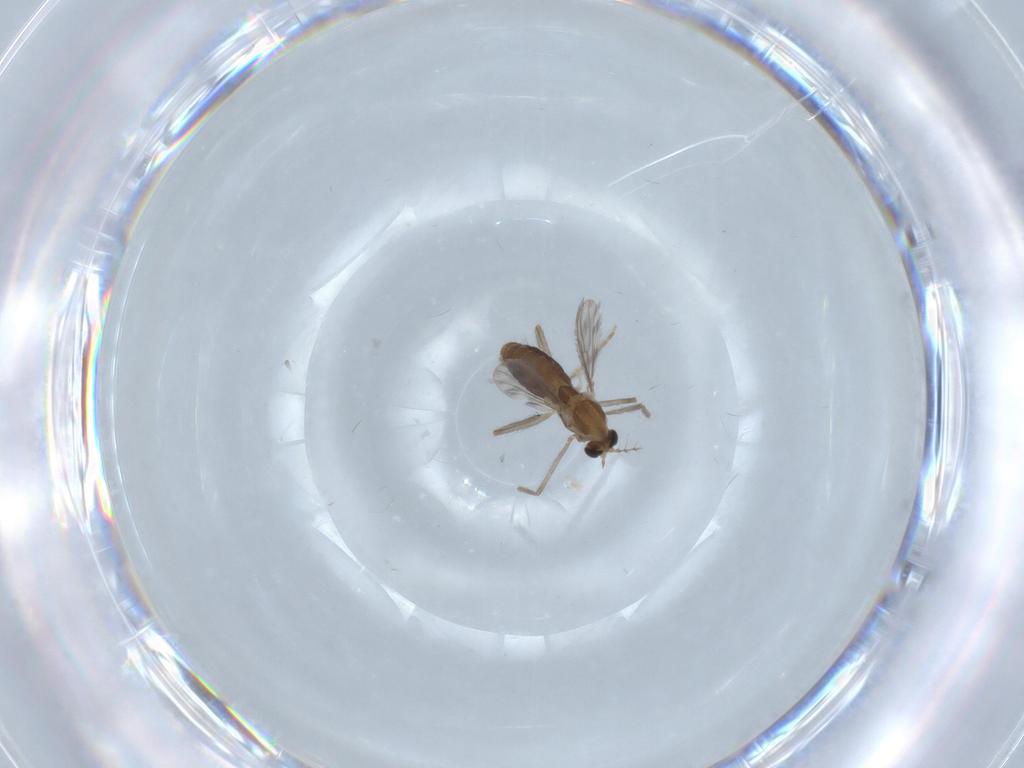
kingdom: Animalia
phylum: Arthropoda
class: Insecta
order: Diptera
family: Chironomidae
